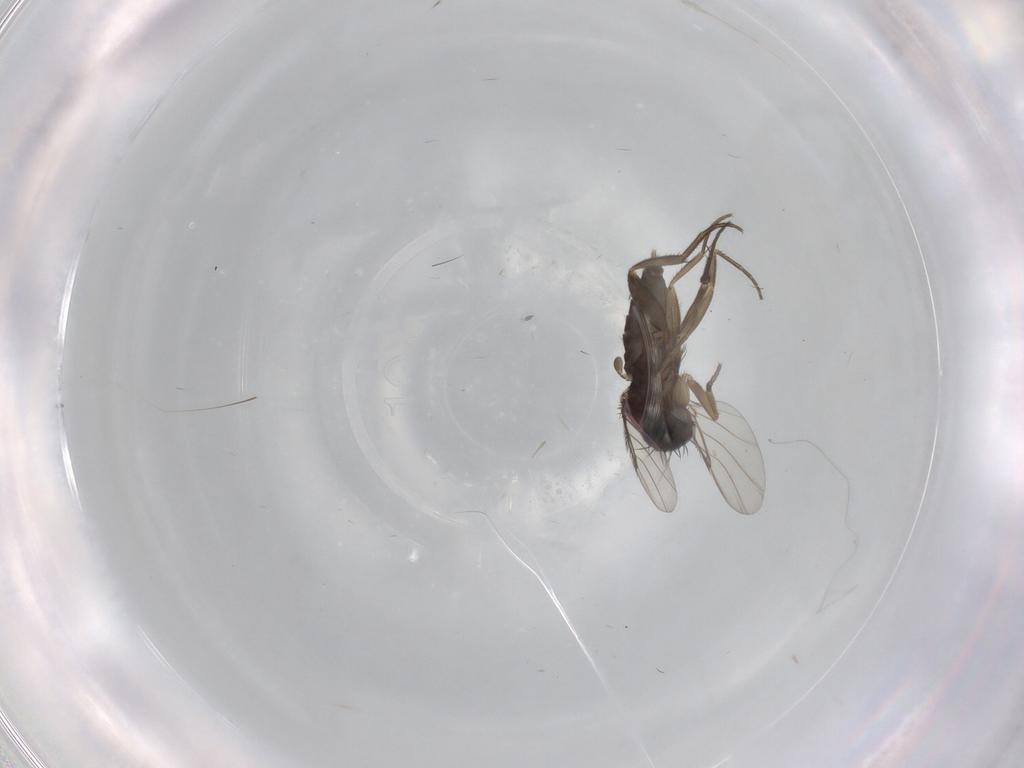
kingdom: Animalia
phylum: Arthropoda
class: Insecta
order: Diptera
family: Phoridae
